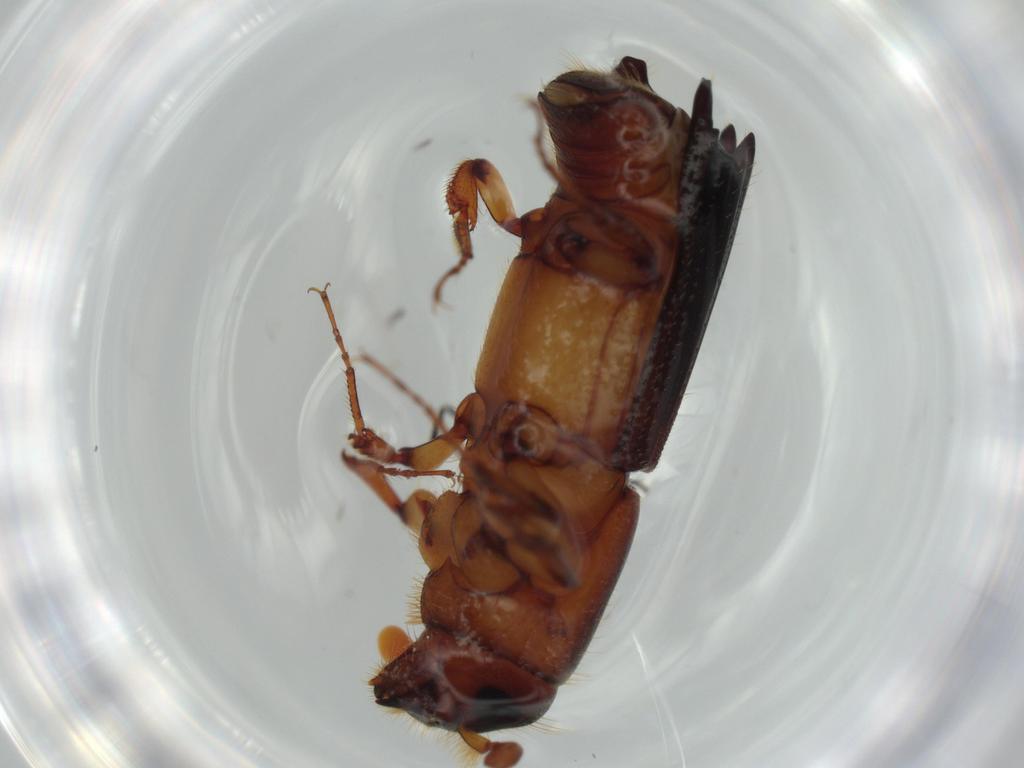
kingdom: Animalia
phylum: Arthropoda
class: Insecta
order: Coleoptera
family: Curculionidae
